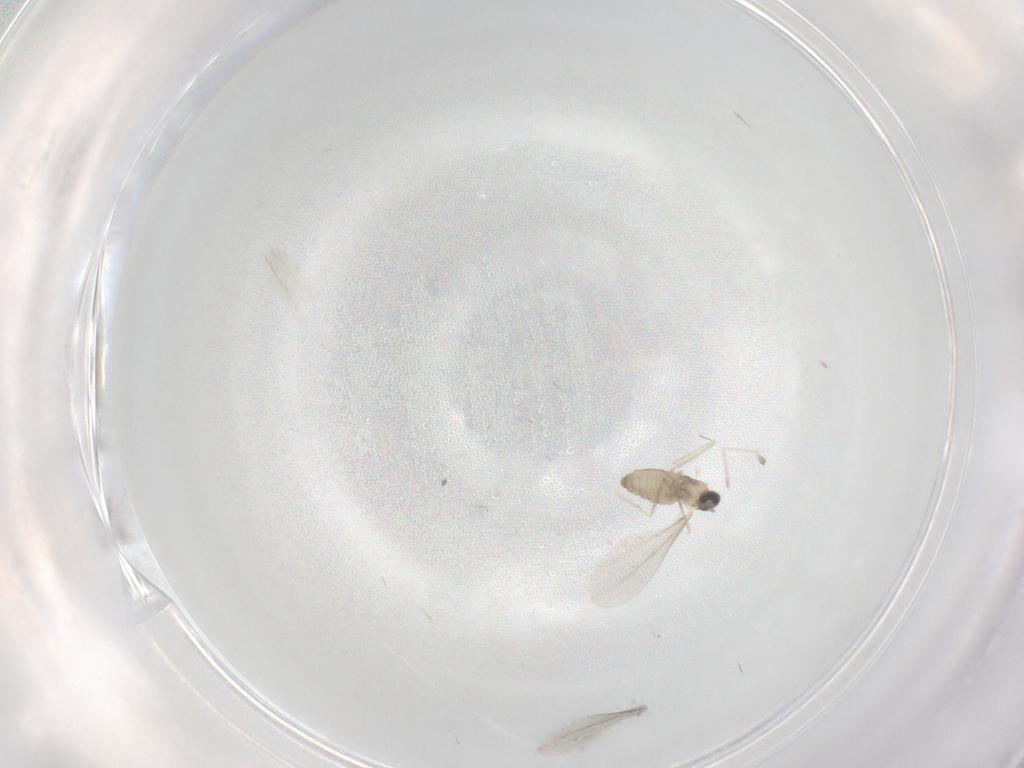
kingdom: Animalia
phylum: Arthropoda
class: Insecta
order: Diptera
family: Cecidomyiidae
